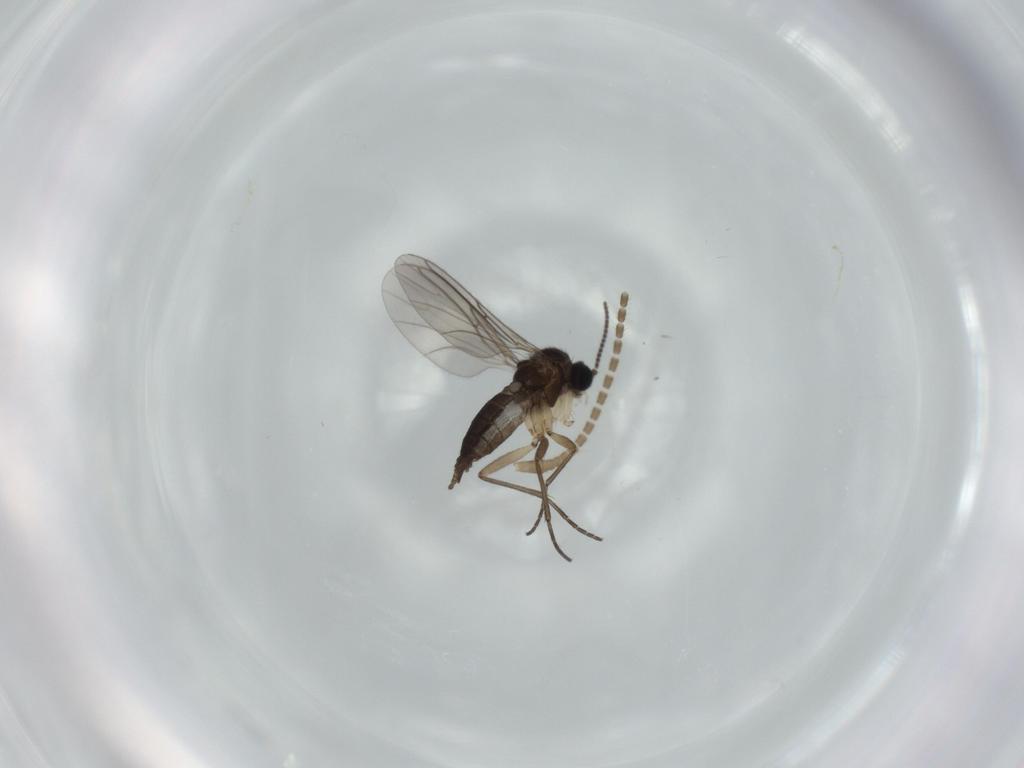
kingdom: Animalia
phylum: Arthropoda
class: Insecta
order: Diptera
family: Sciaridae
